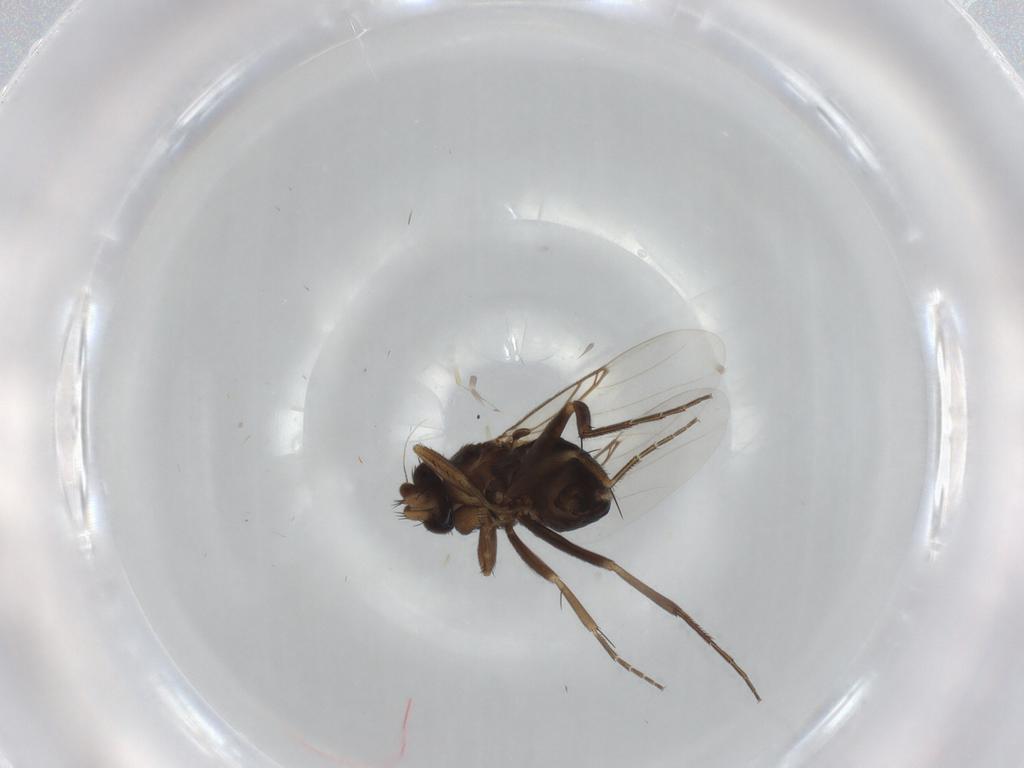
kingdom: Animalia
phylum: Arthropoda
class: Insecta
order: Diptera
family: Phoridae
